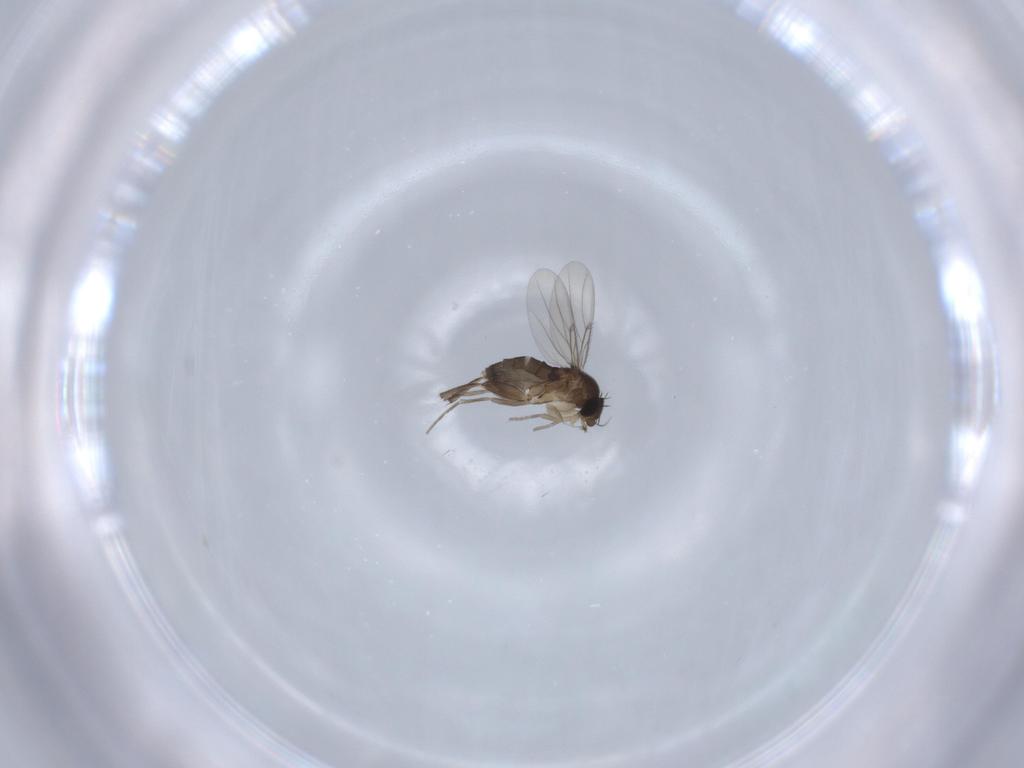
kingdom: Animalia
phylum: Arthropoda
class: Insecta
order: Diptera
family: Phoridae
